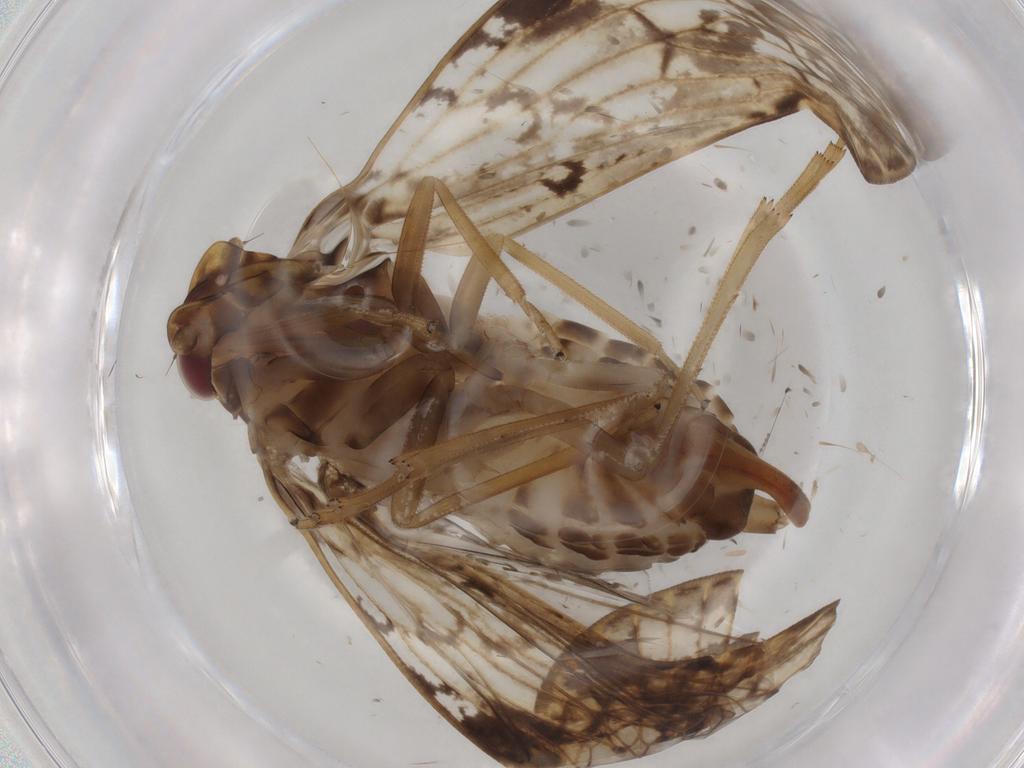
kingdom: Animalia
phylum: Arthropoda
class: Insecta
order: Hemiptera
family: Cixiidae
